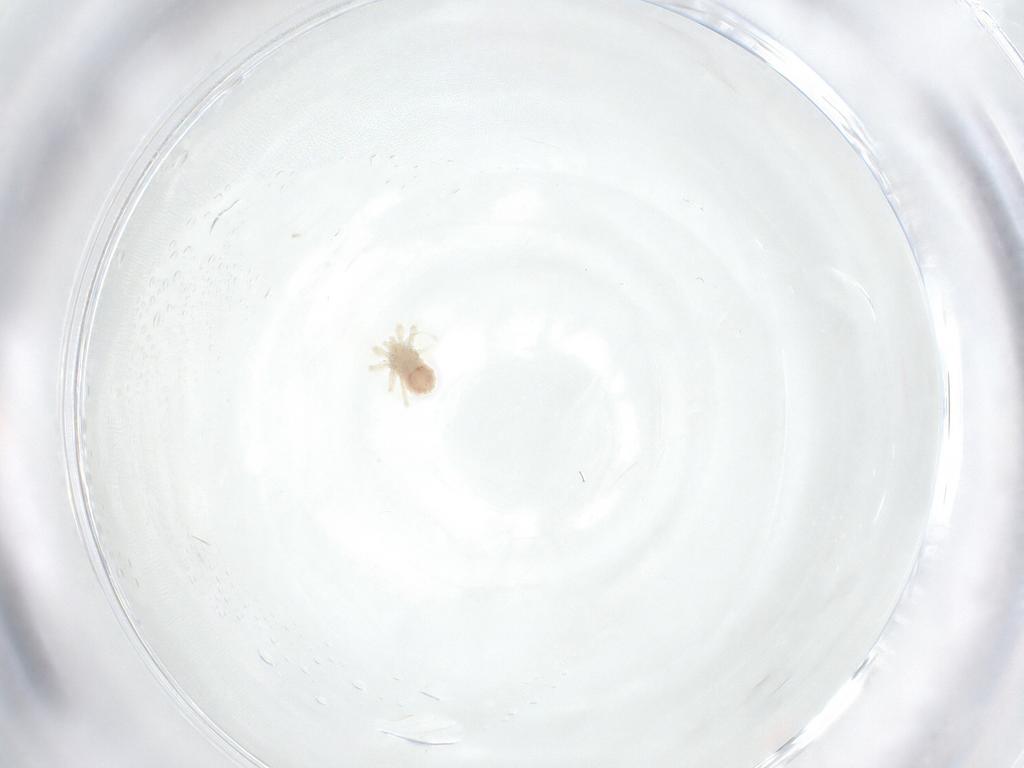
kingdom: Animalia
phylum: Arthropoda
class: Arachnida
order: Trombidiformes
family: Anystidae
